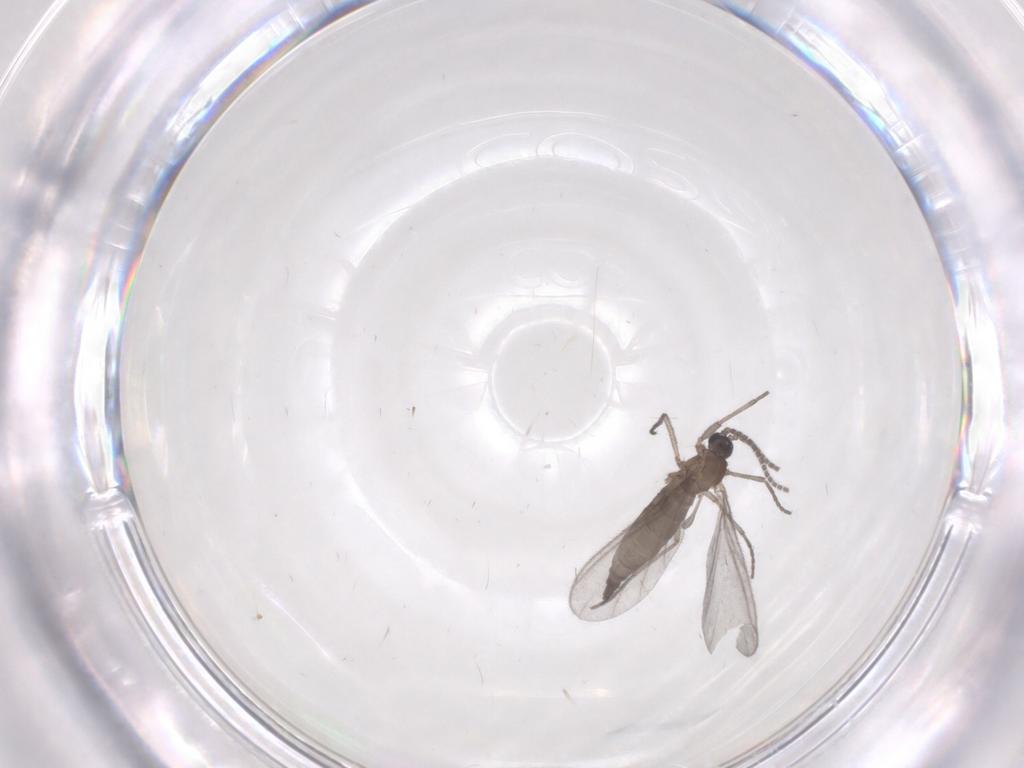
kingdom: Animalia
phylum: Arthropoda
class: Insecta
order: Diptera
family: Sciaridae
